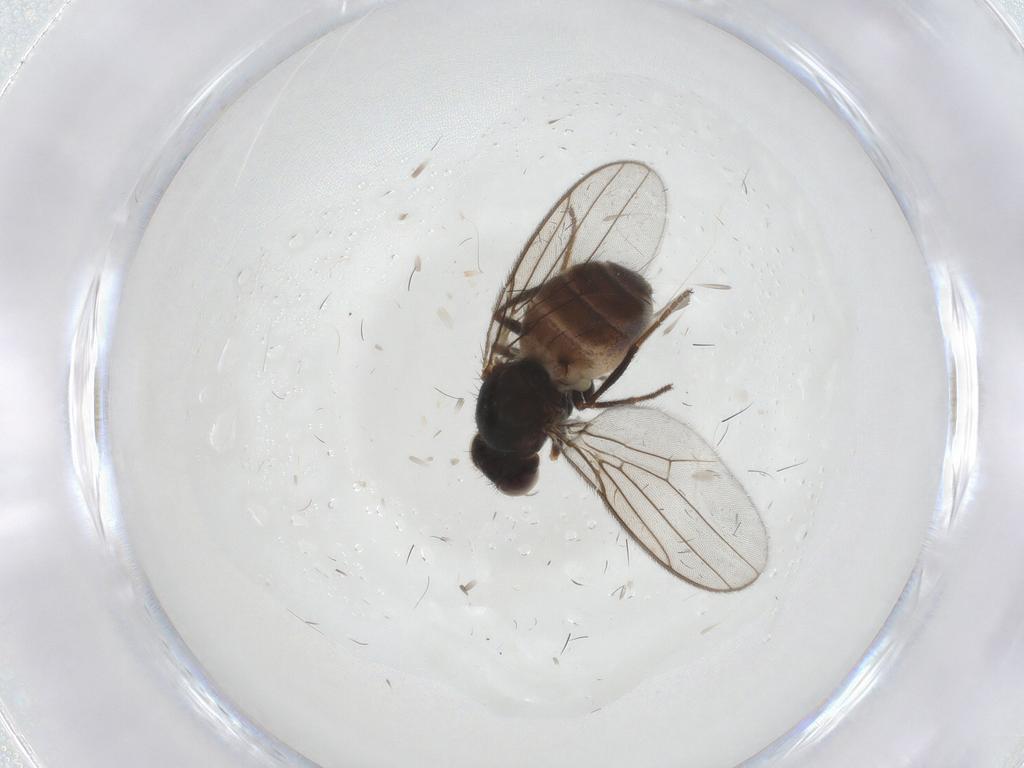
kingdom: Animalia
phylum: Arthropoda
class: Insecta
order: Diptera
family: Chloropidae
